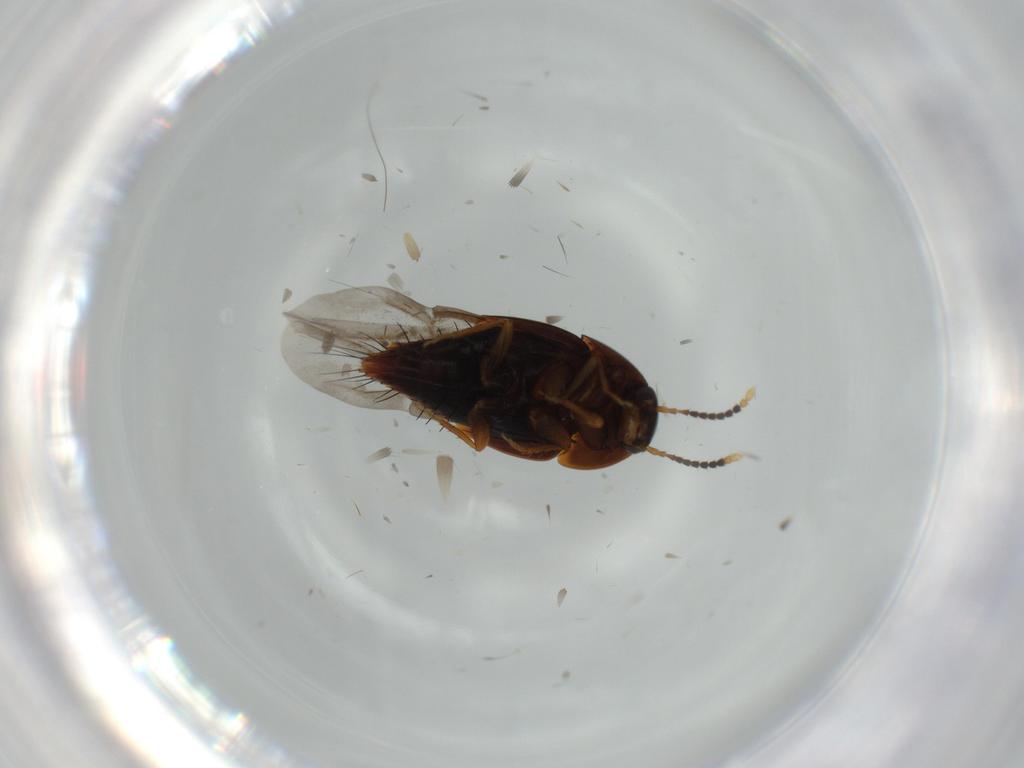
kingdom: Animalia
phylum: Arthropoda
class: Insecta
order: Coleoptera
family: Staphylinidae
